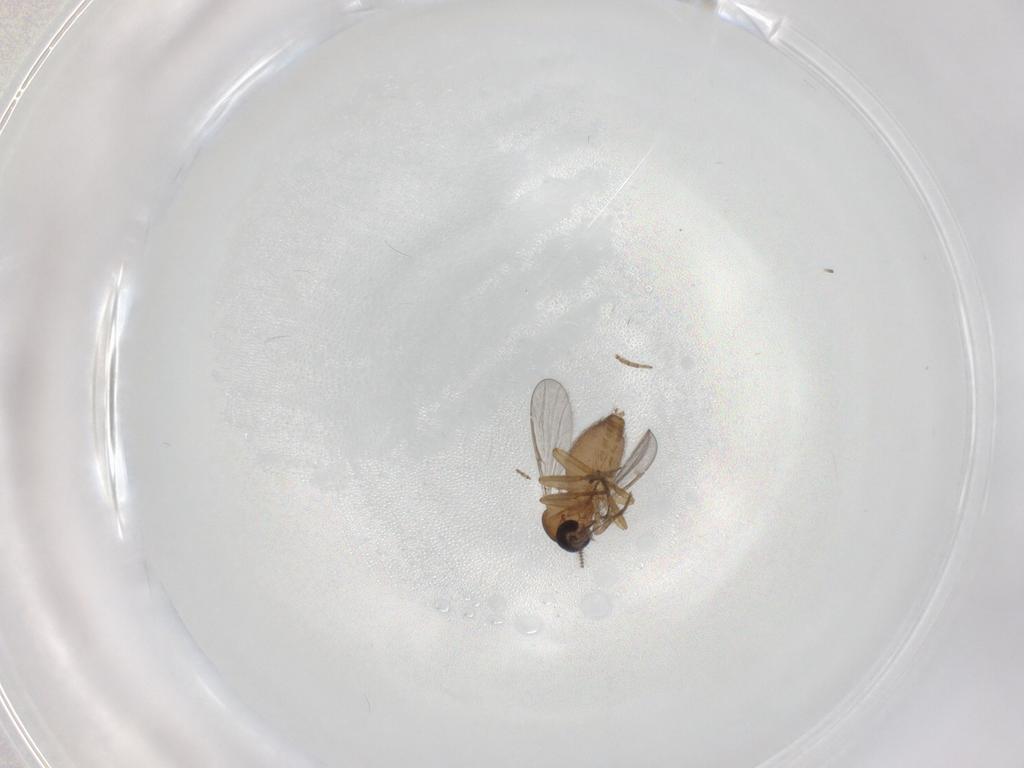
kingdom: Animalia
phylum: Arthropoda
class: Insecta
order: Diptera
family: Ceratopogonidae
